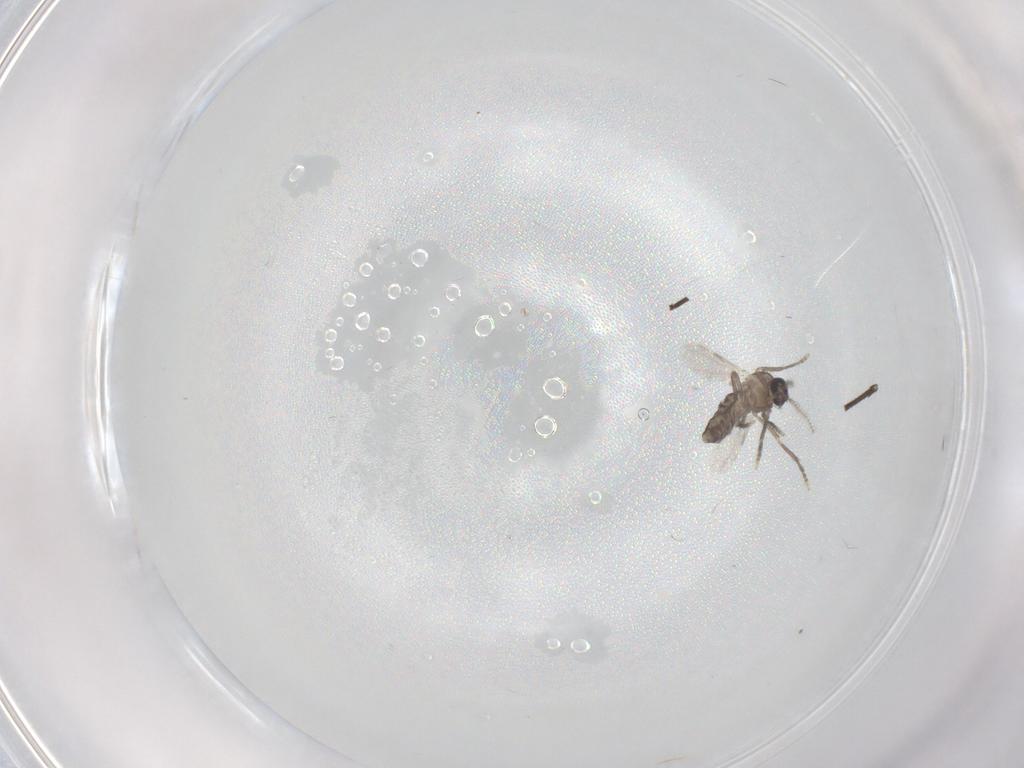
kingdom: Animalia
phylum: Arthropoda
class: Insecta
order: Diptera
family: Ceratopogonidae
